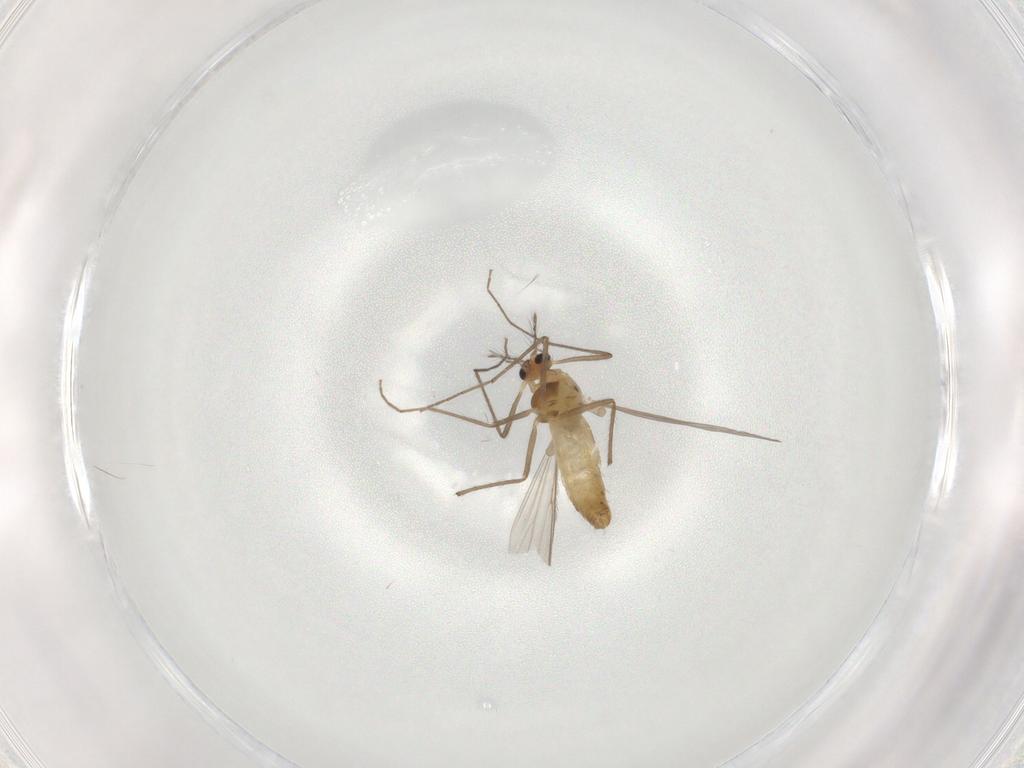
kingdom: Animalia
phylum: Arthropoda
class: Insecta
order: Diptera
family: Chironomidae
